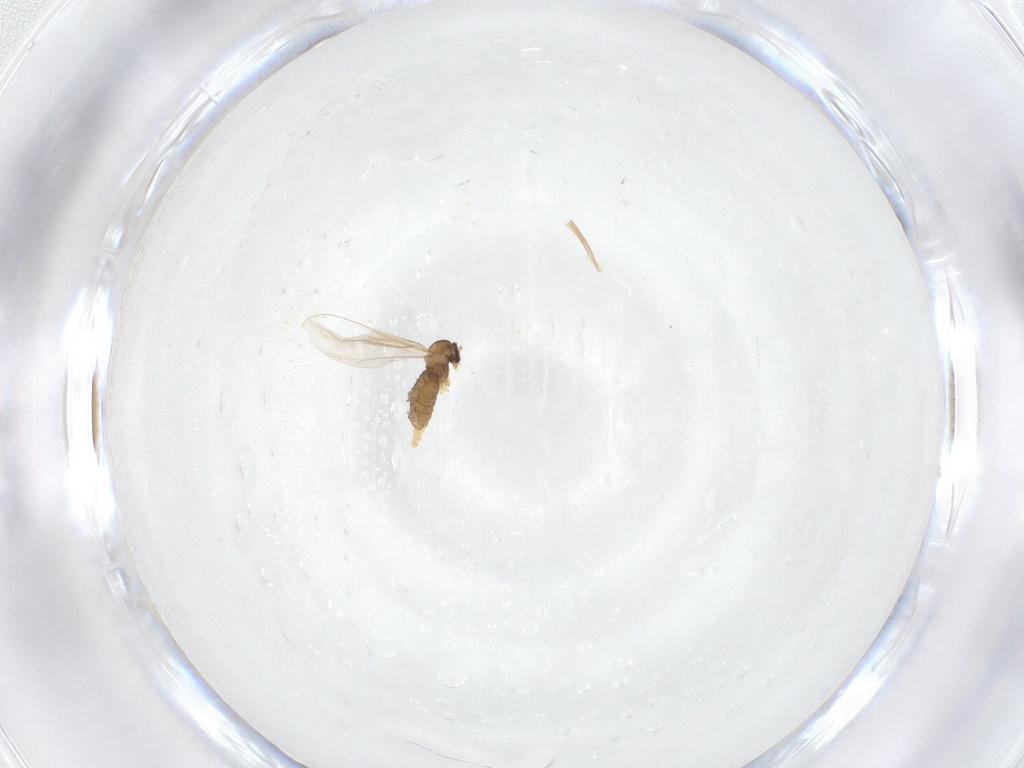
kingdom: Animalia
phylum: Arthropoda
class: Insecta
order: Diptera
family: Cecidomyiidae
